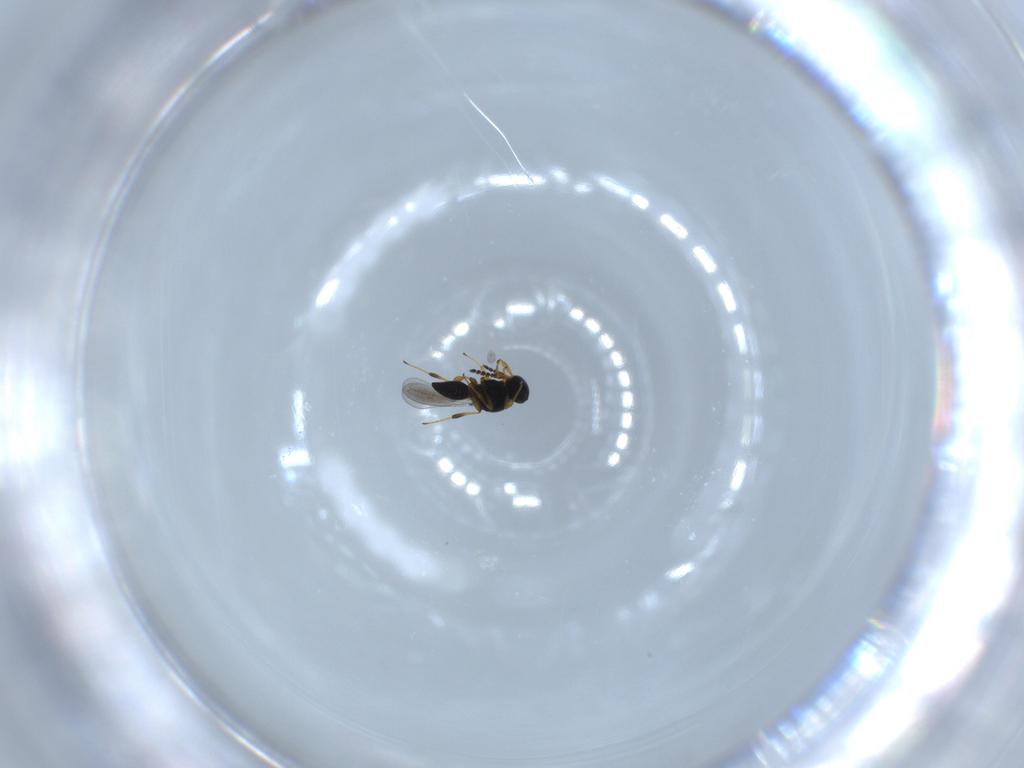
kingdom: Animalia
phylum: Arthropoda
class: Insecta
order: Hymenoptera
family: Platygastridae
